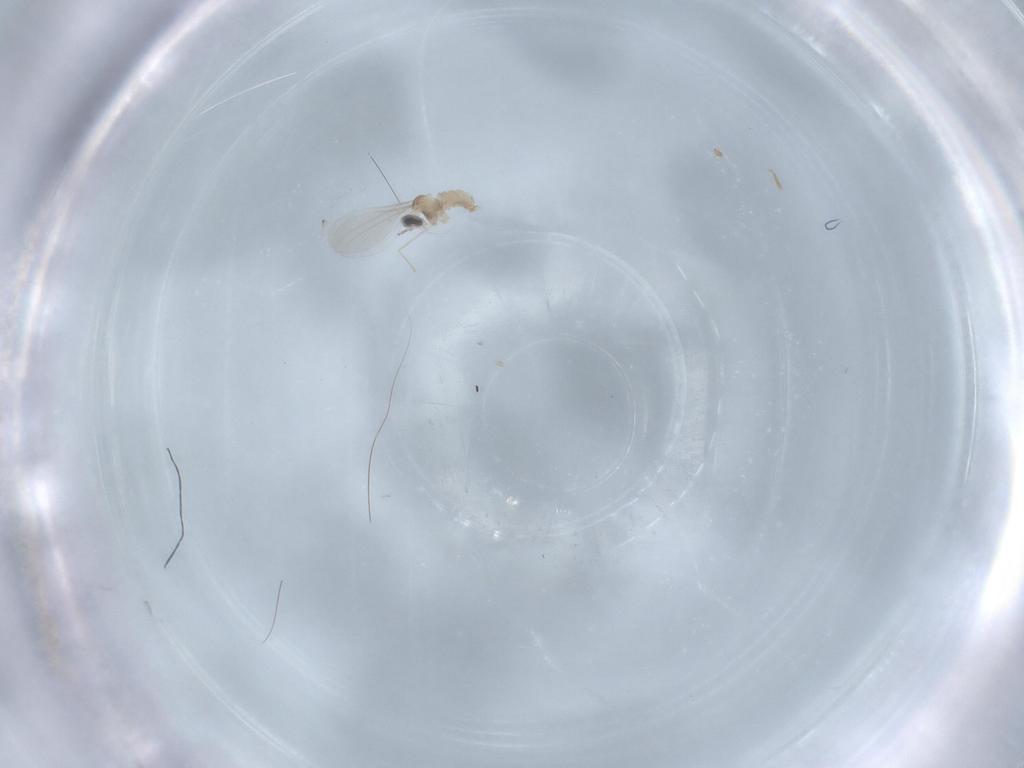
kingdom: Animalia
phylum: Arthropoda
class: Insecta
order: Diptera
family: Cecidomyiidae
